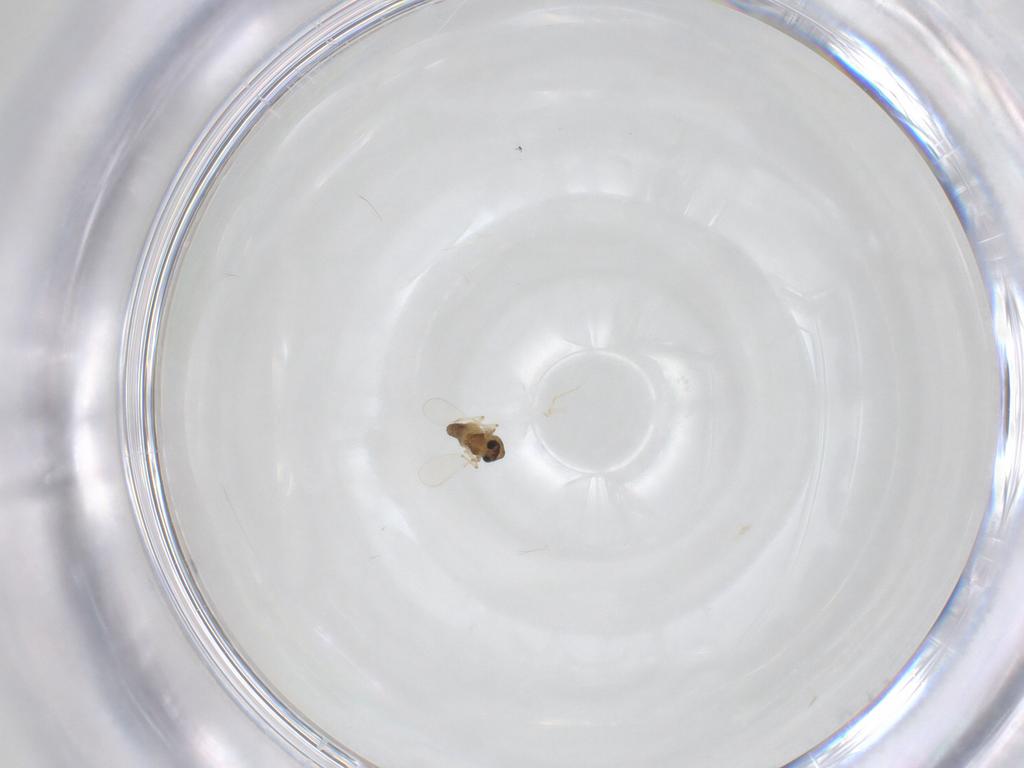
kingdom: Animalia
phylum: Arthropoda
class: Insecta
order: Diptera
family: Chironomidae
